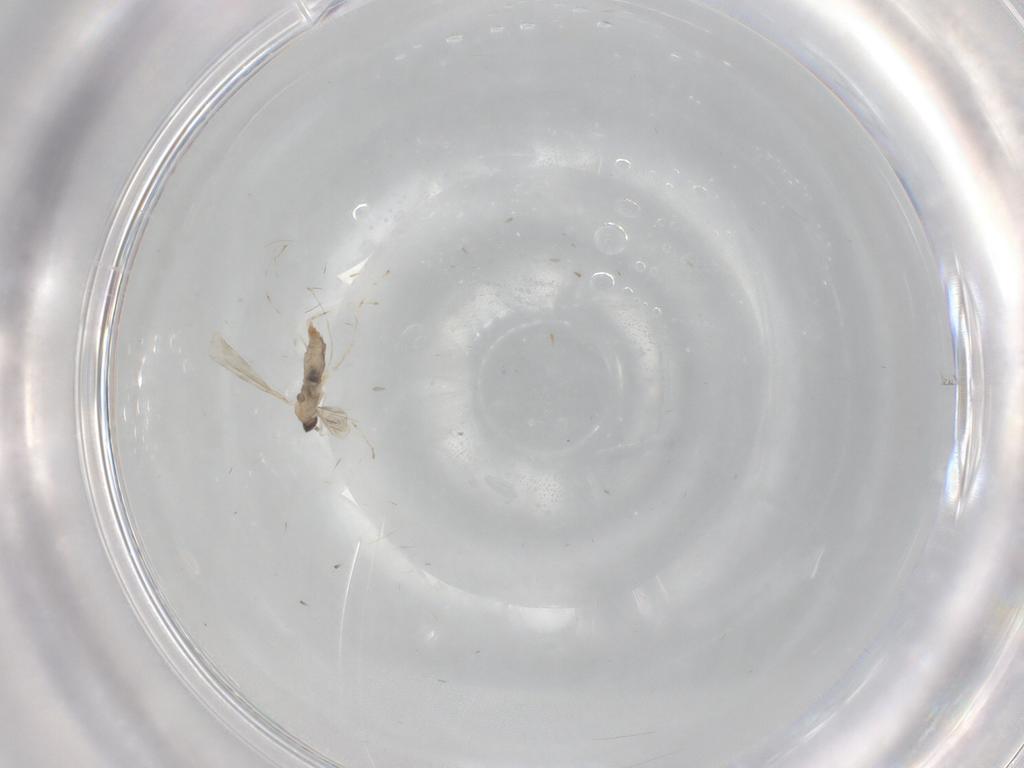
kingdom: Animalia
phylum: Arthropoda
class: Insecta
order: Diptera
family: Cecidomyiidae
